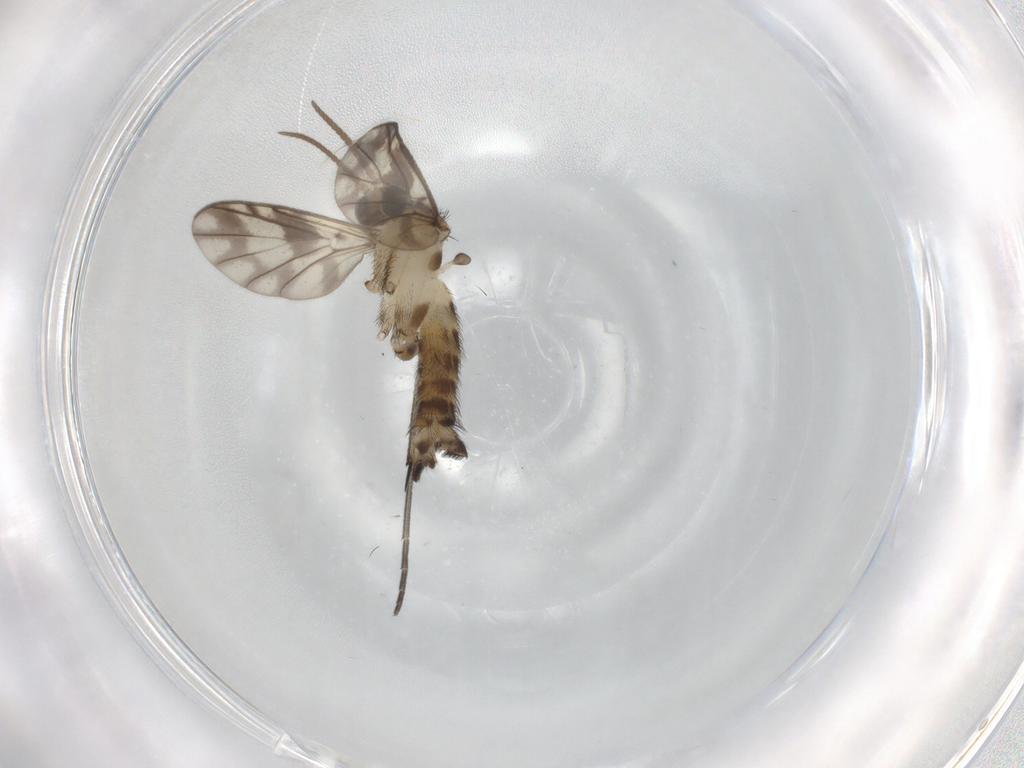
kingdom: Animalia
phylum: Arthropoda
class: Insecta
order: Diptera
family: Keroplatidae
